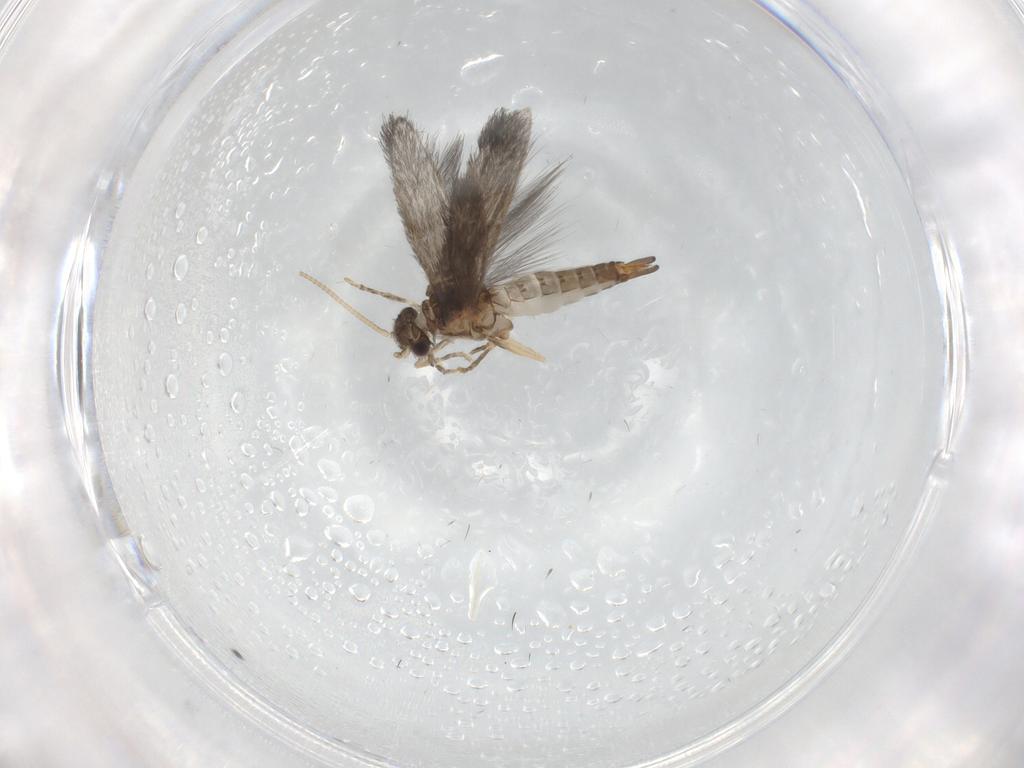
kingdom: Animalia
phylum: Arthropoda
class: Insecta
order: Trichoptera
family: Hydroptilidae
